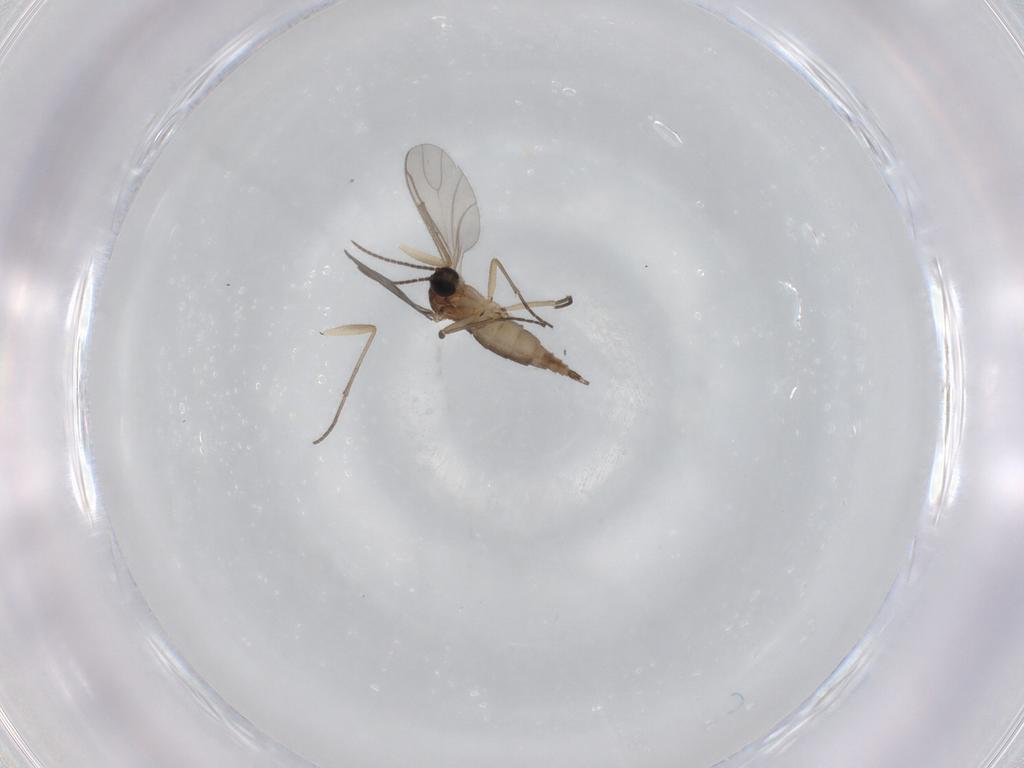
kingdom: Animalia
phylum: Arthropoda
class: Insecta
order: Diptera
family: Sciaridae
